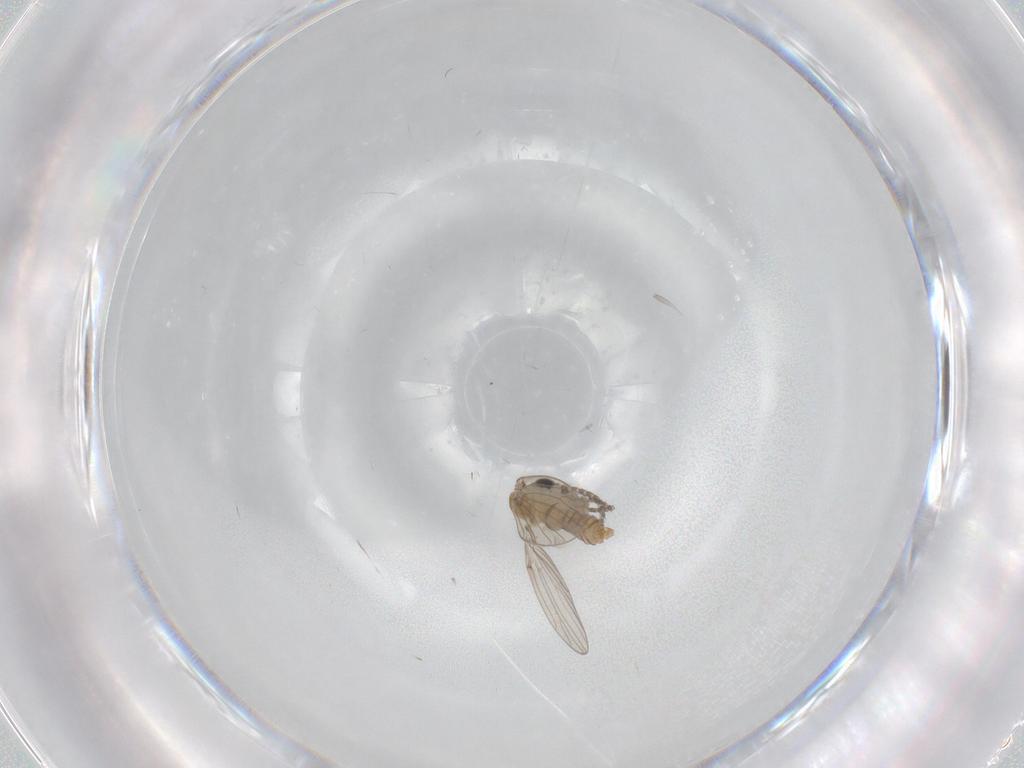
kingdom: Animalia
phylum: Arthropoda
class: Insecta
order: Diptera
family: Psychodidae
